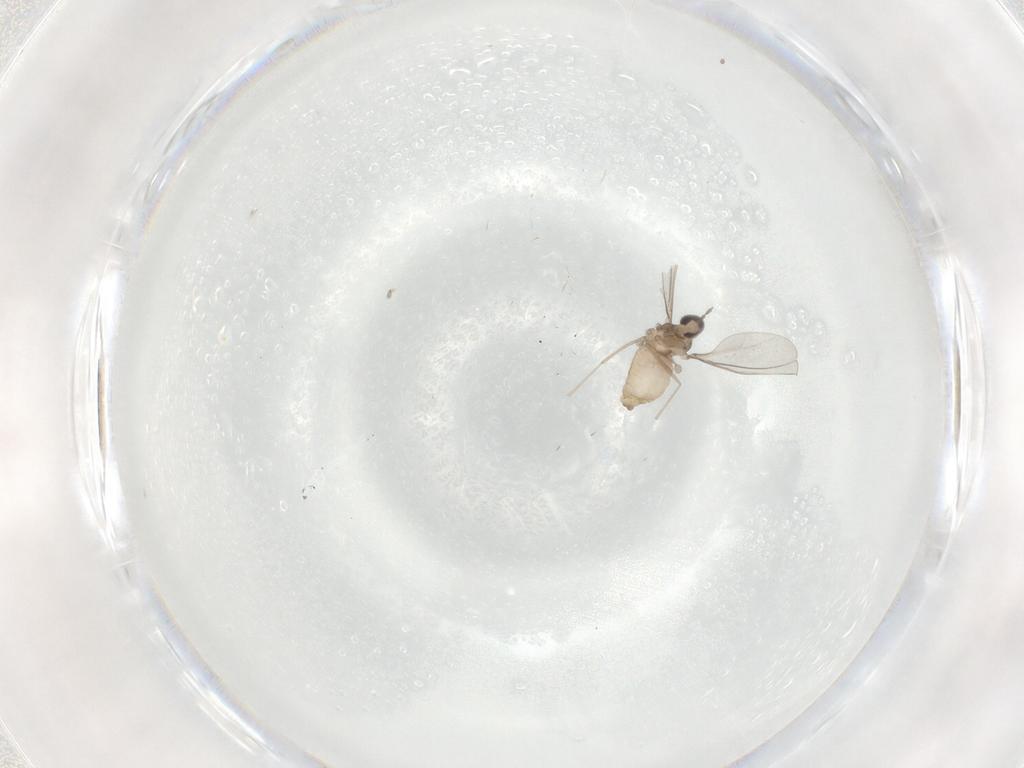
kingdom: Animalia
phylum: Arthropoda
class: Insecta
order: Diptera
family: Cecidomyiidae
